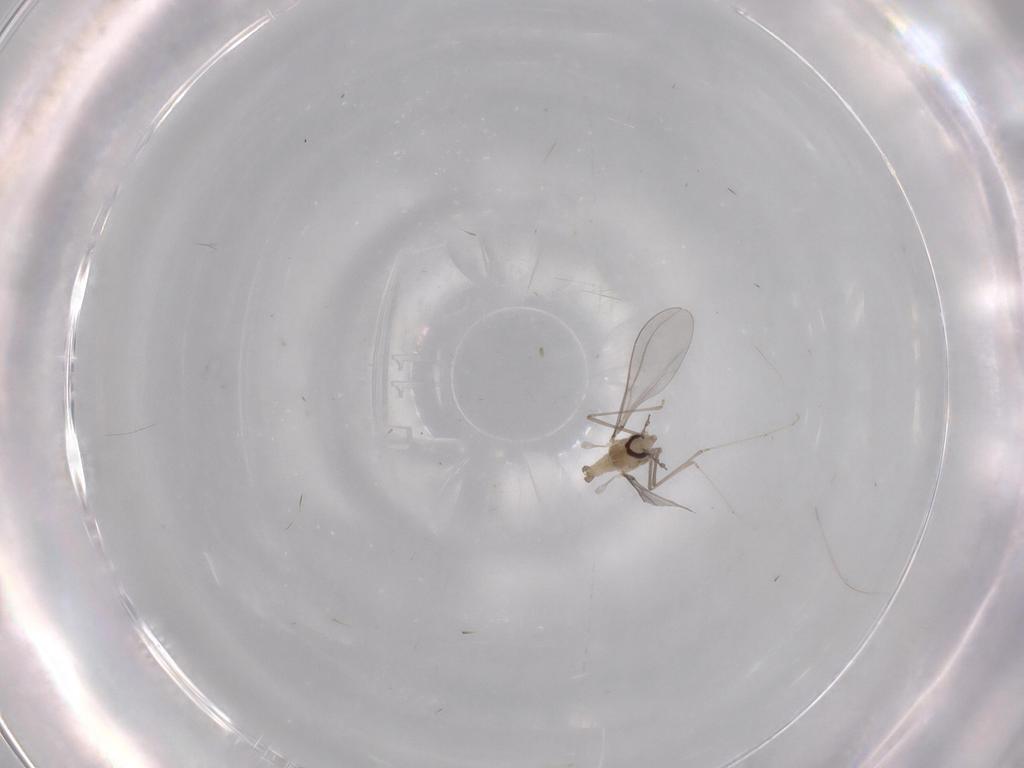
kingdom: Animalia
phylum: Arthropoda
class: Insecta
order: Diptera
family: Cecidomyiidae
